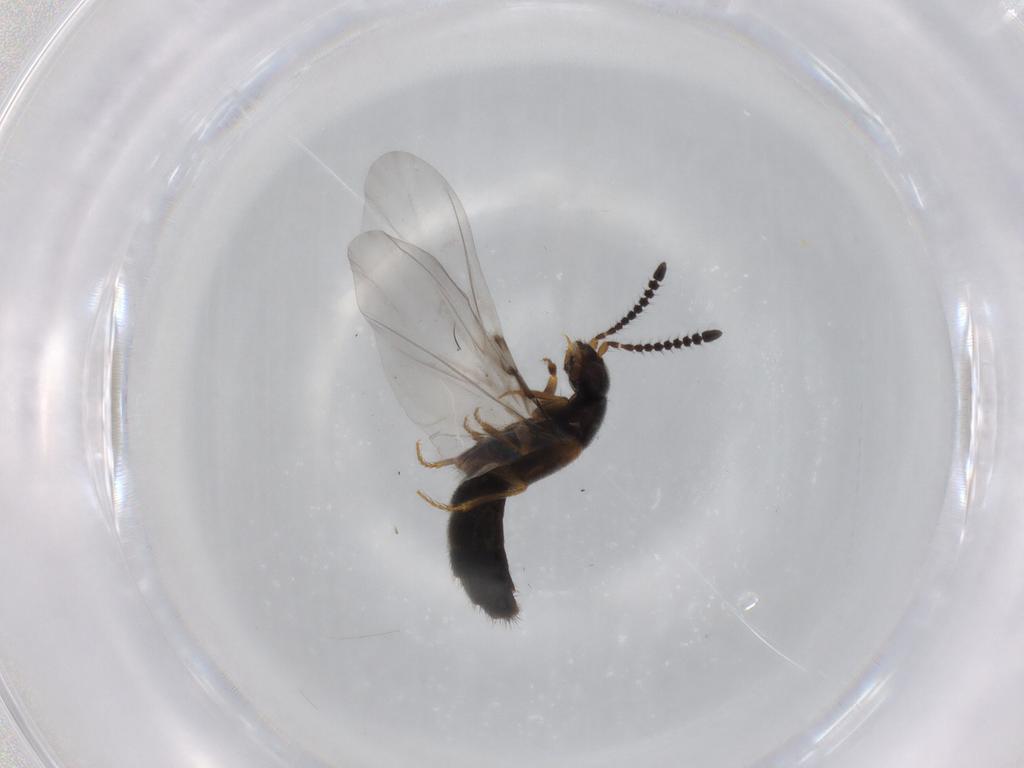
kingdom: Animalia
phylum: Arthropoda
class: Insecta
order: Coleoptera
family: Staphylinidae
